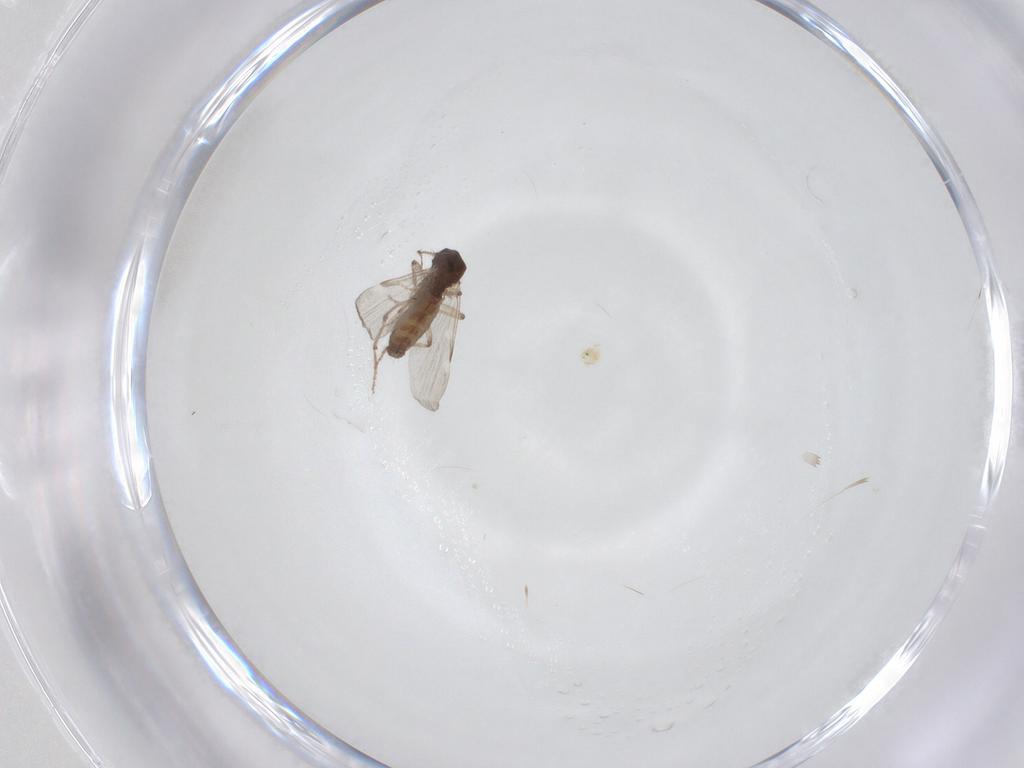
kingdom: Animalia
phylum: Arthropoda
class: Insecta
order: Diptera
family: Ceratopogonidae
